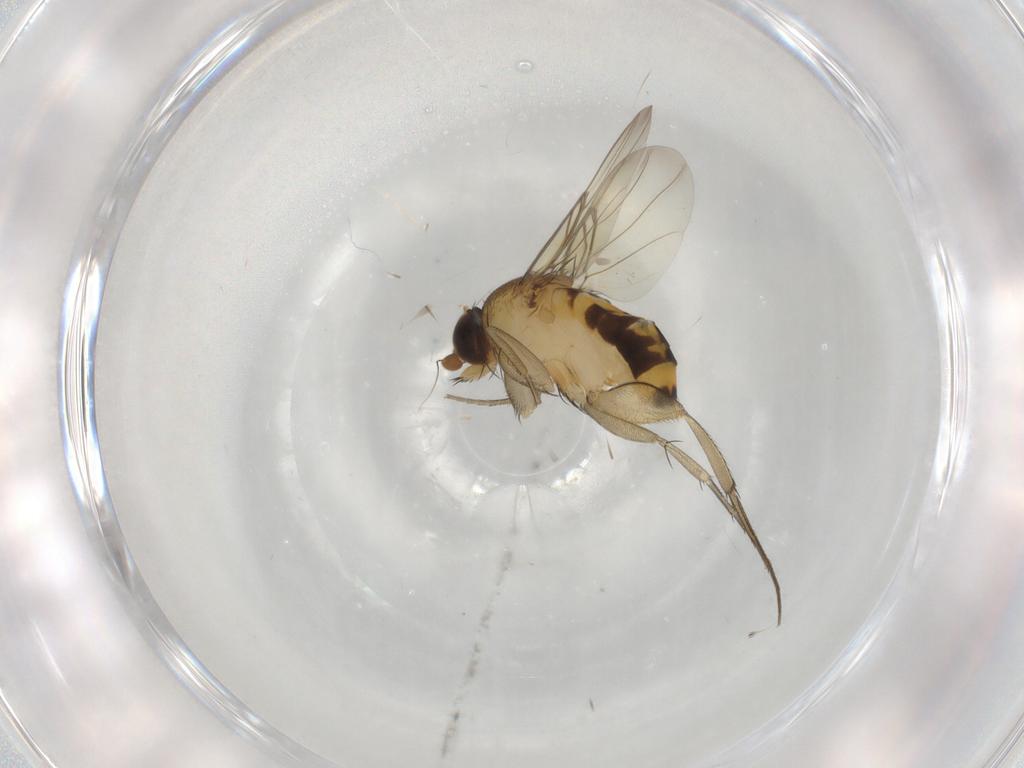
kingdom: Animalia
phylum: Arthropoda
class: Insecta
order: Diptera
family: Phoridae
